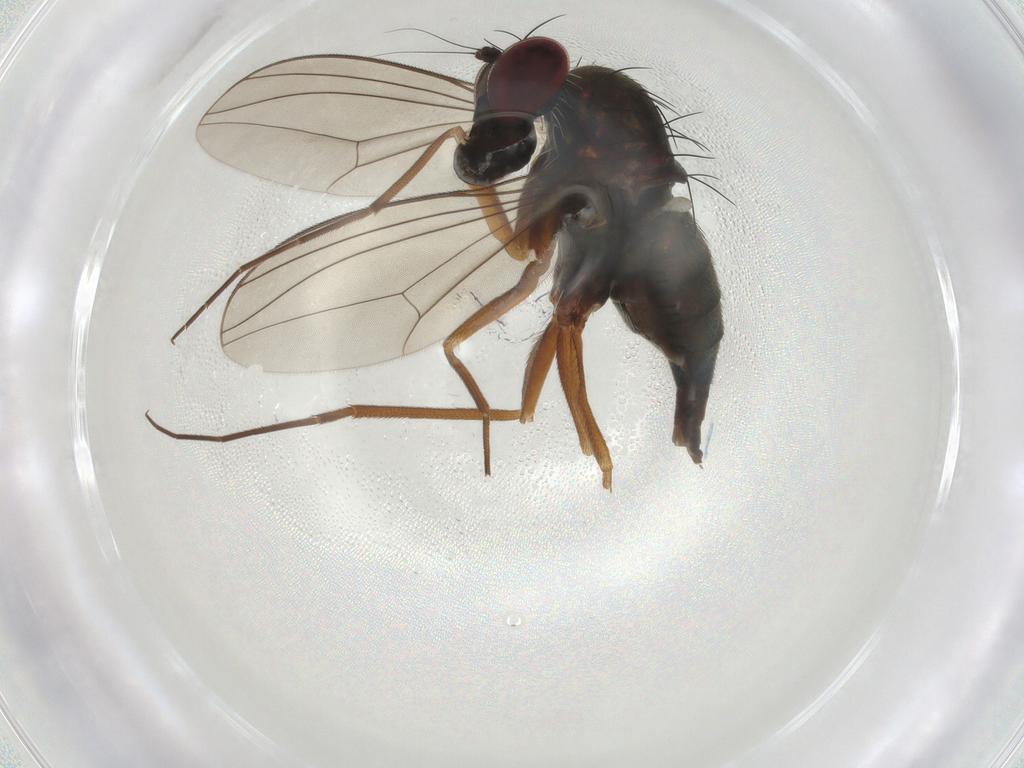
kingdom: Animalia
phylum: Arthropoda
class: Insecta
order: Diptera
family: Dolichopodidae
